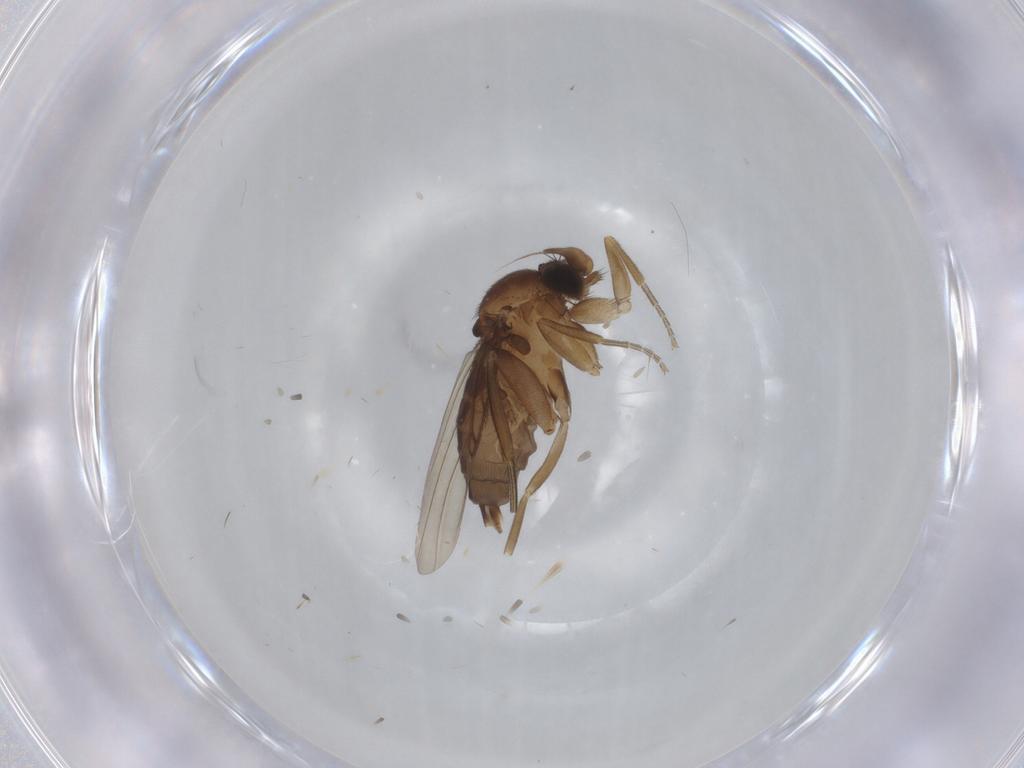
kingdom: Animalia
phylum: Arthropoda
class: Insecta
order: Diptera
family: Phoridae
